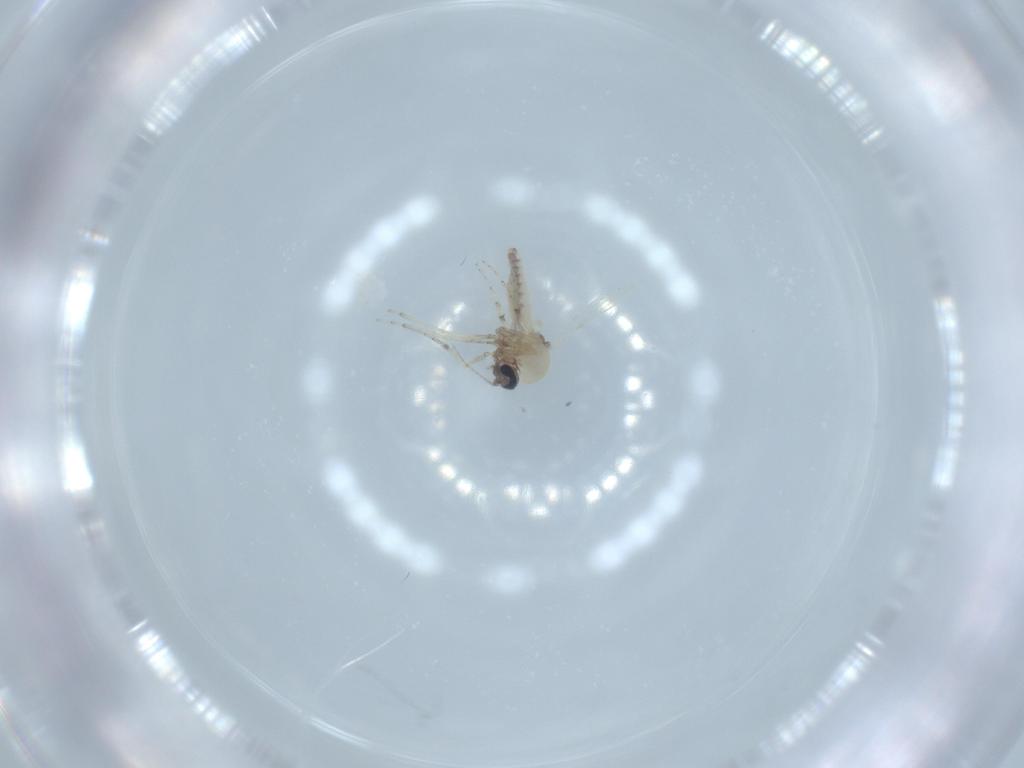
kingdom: Animalia
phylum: Arthropoda
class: Insecta
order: Diptera
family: Ceratopogonidae
